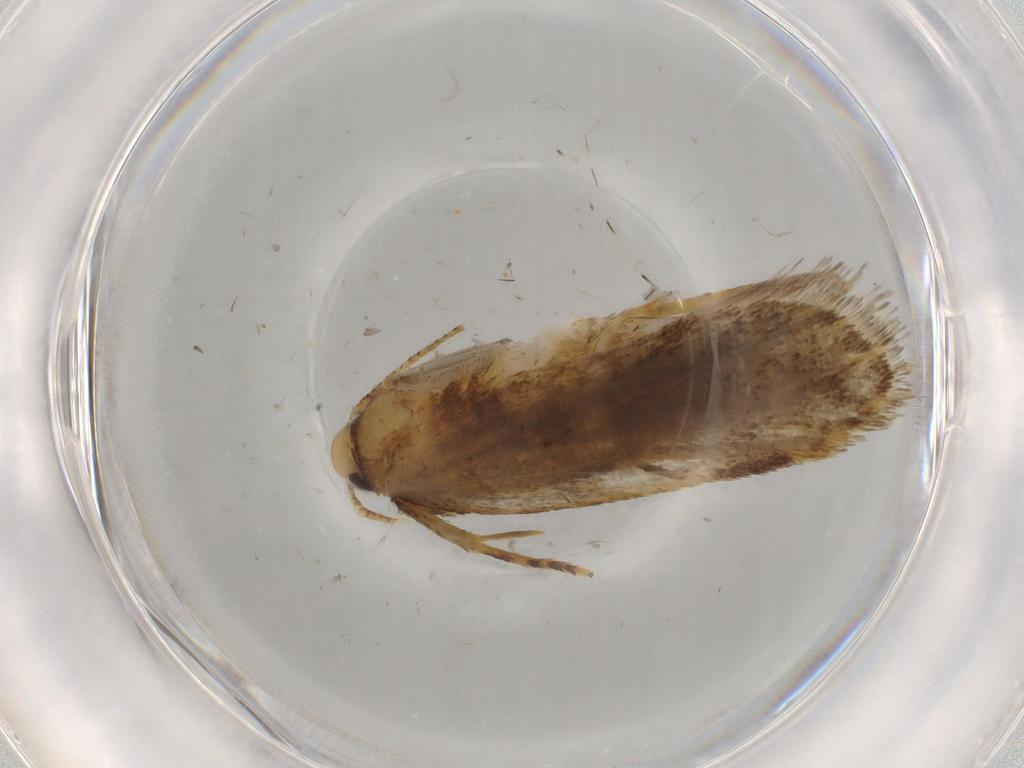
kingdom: Animalia
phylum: Arthropoda
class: Insecta
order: Lepidoptera
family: Autostichidae
